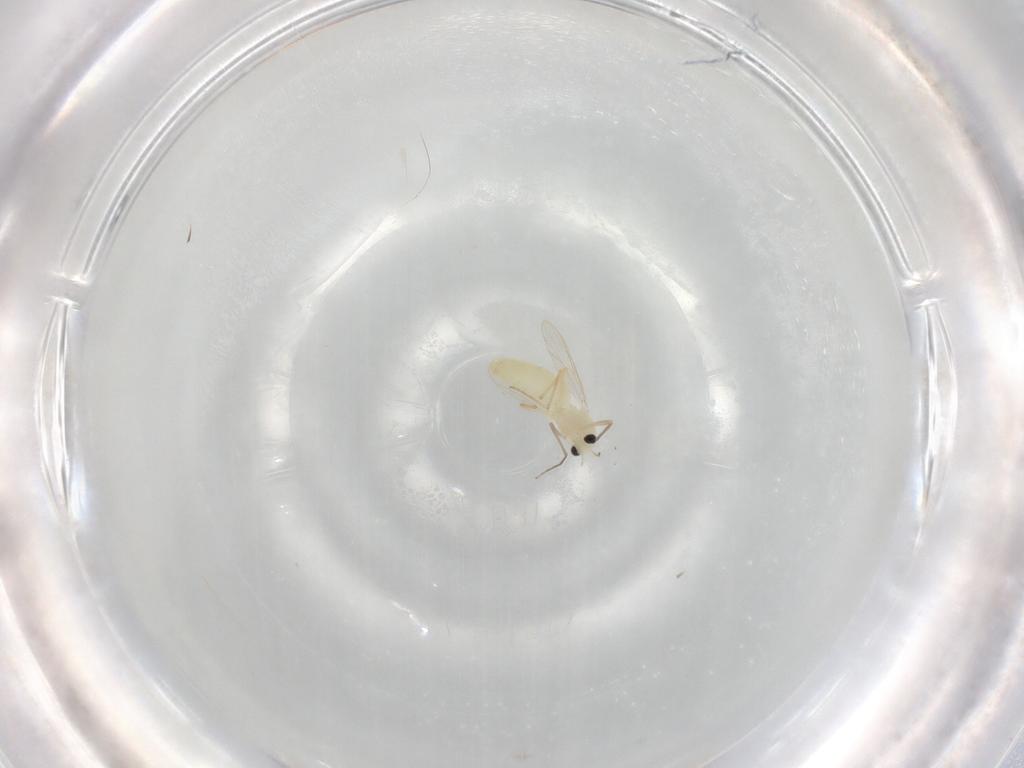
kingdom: Animalia
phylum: Arthropoda
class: Insecta
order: Diptera
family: Chironomidae
